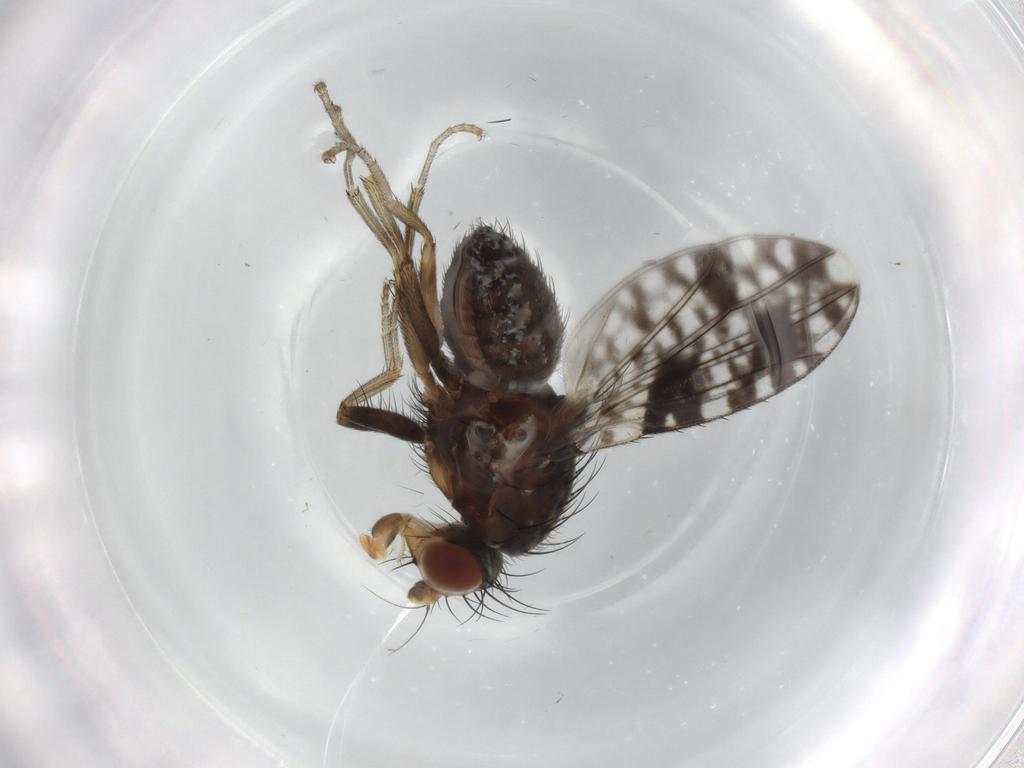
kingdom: Animalia
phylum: Arthropoda
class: Insecta
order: Diptera
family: Tephritidae
